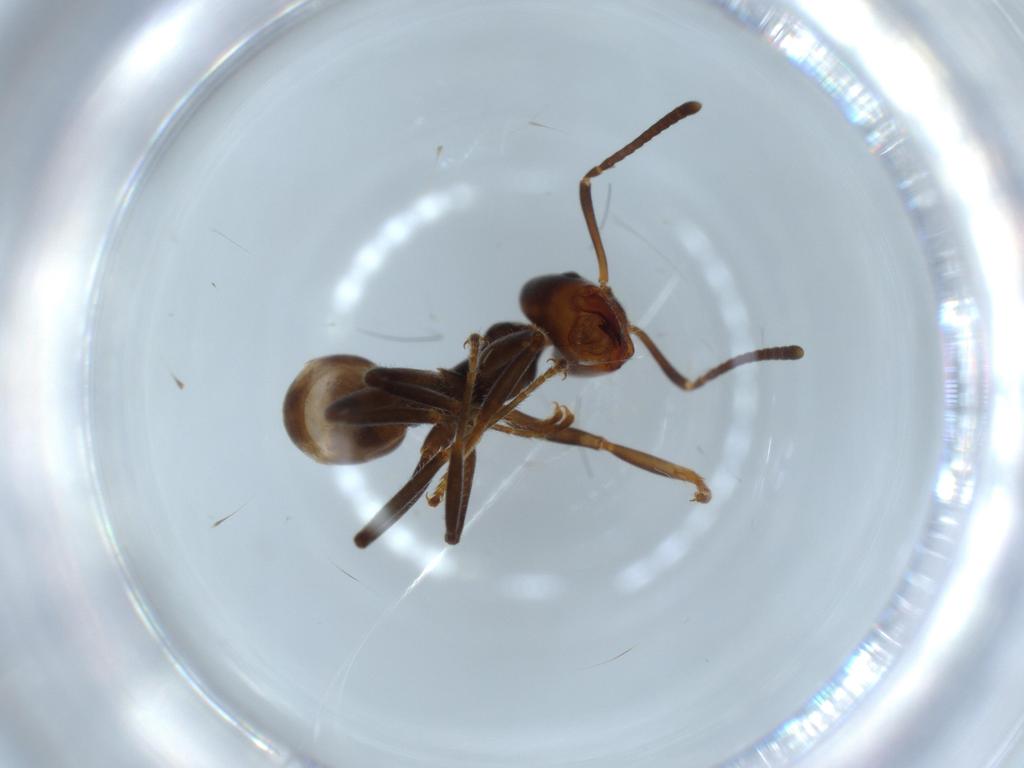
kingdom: Animalia
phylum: Arthropoda
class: Insecta
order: Hymenoptera
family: Formicidae
